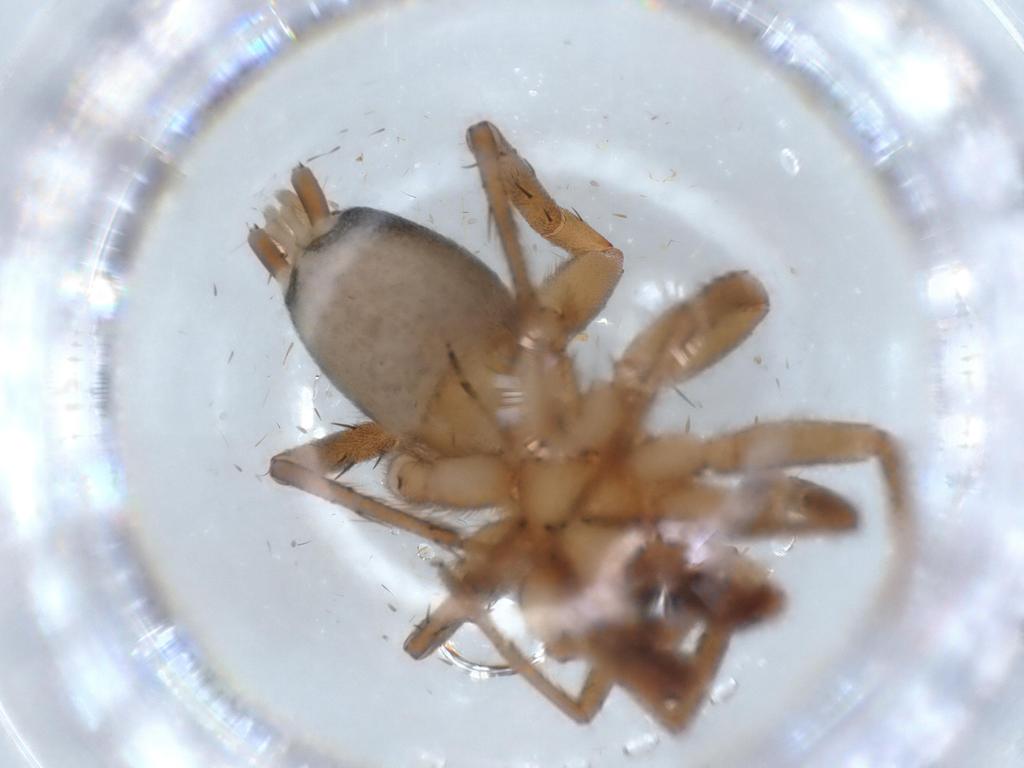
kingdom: Animalia
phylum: Arthropoda
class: Arachnida
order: Araneae
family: Gnaphosidae
